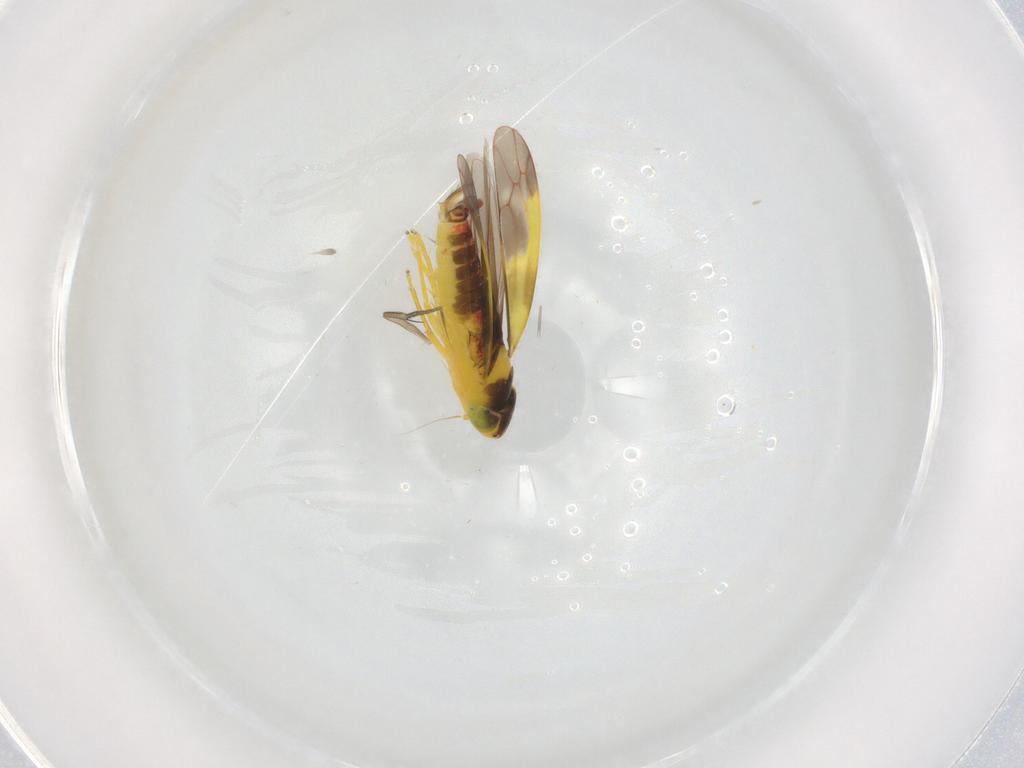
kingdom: Animalia
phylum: Arthropoda
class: Insecta
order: Hemiptera
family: Cicadellidae
